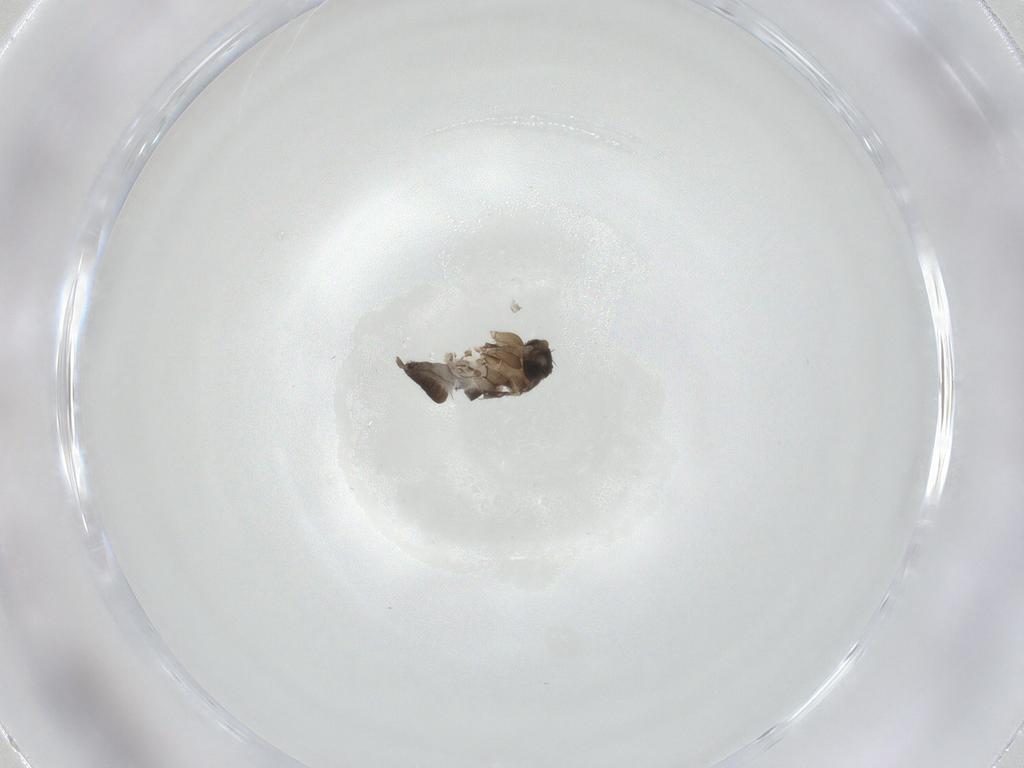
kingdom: Animalia
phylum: Arthropoda
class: Insecta
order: Diptera
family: Phoridae
